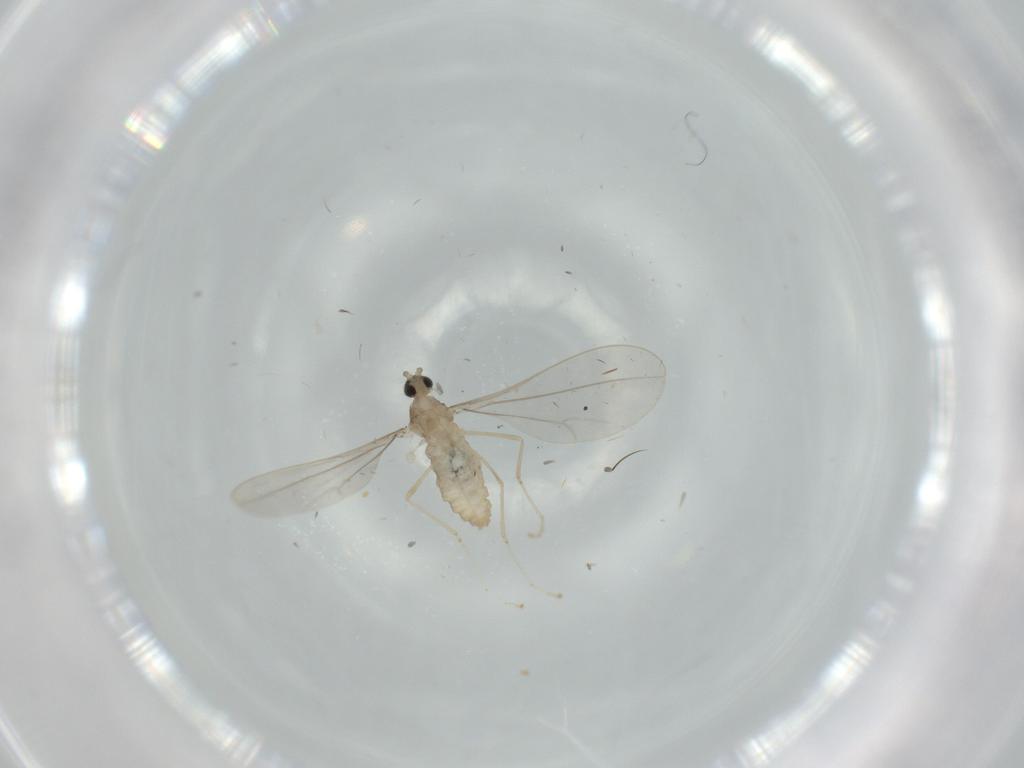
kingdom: Animalia
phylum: Arthropoda
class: Insecta
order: Diptera
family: Cecidomyiidae
